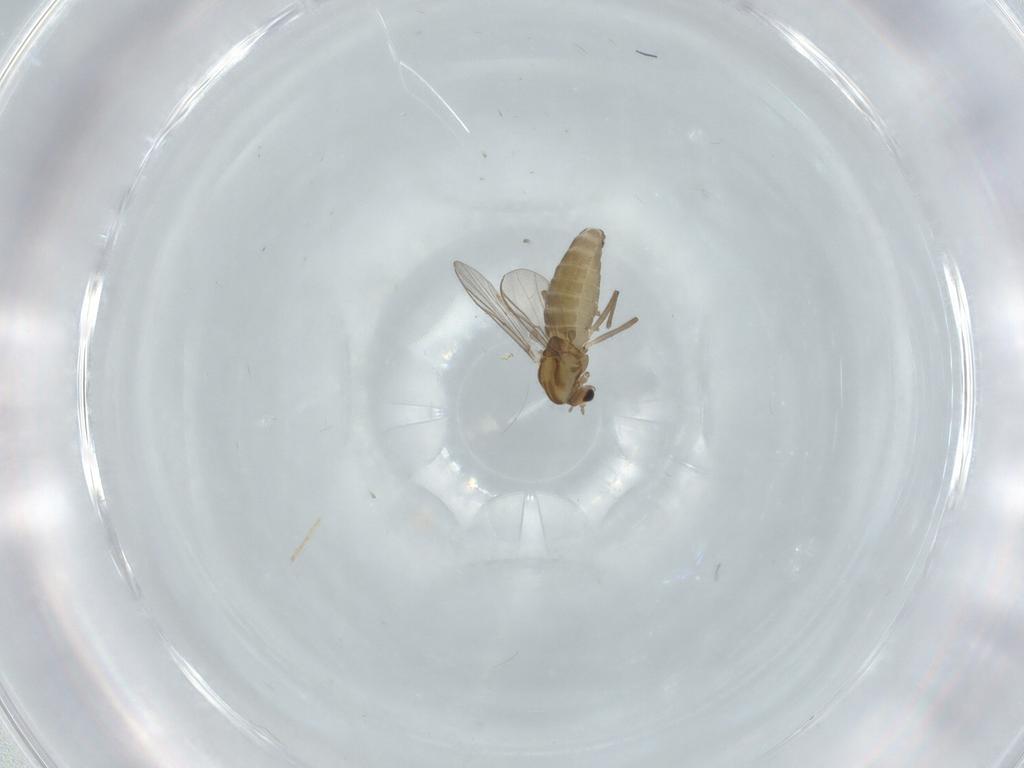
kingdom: Animalia
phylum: Arthropoda
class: Insecta
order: Diptera
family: Chironomidae
